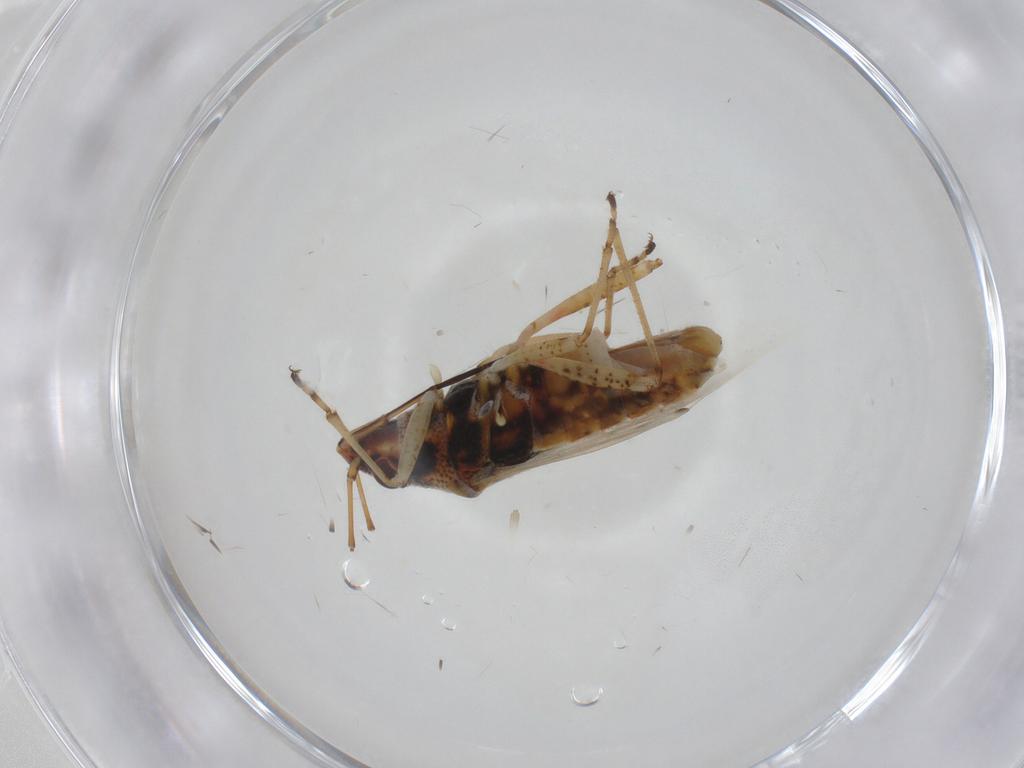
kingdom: Animalia
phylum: Arthropoda
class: Insecta
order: Hemiptera
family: Lygaeidae
